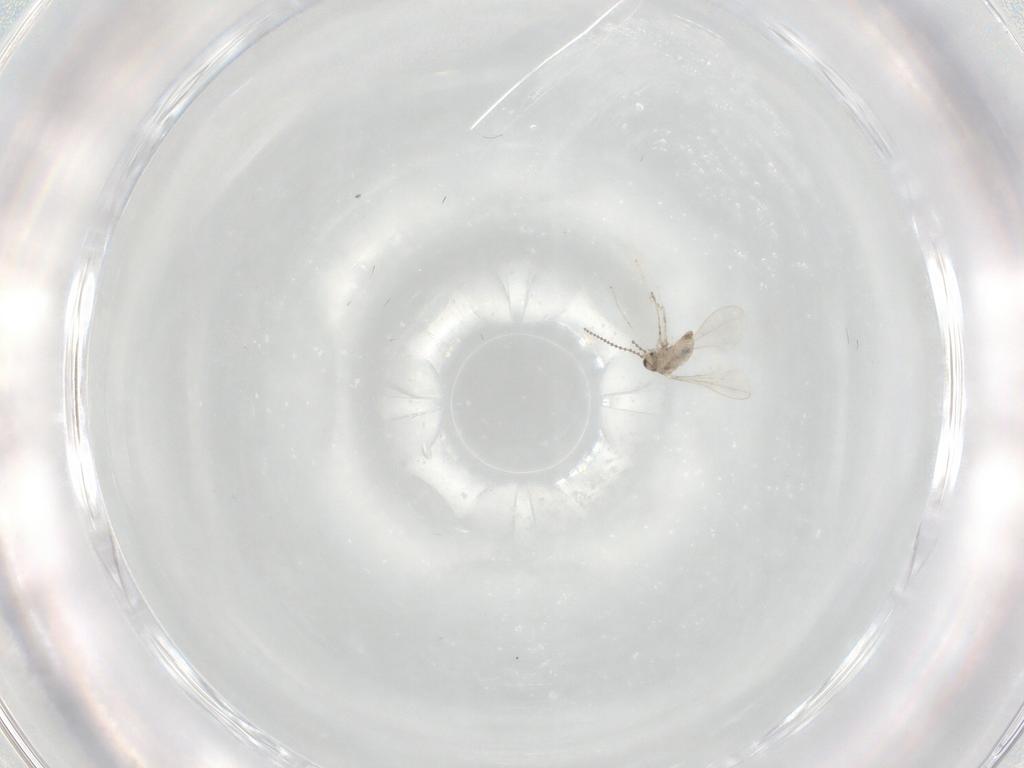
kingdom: Animalia
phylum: Arthropoda
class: Insecta
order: Diptera
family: Cecidomyiidae
